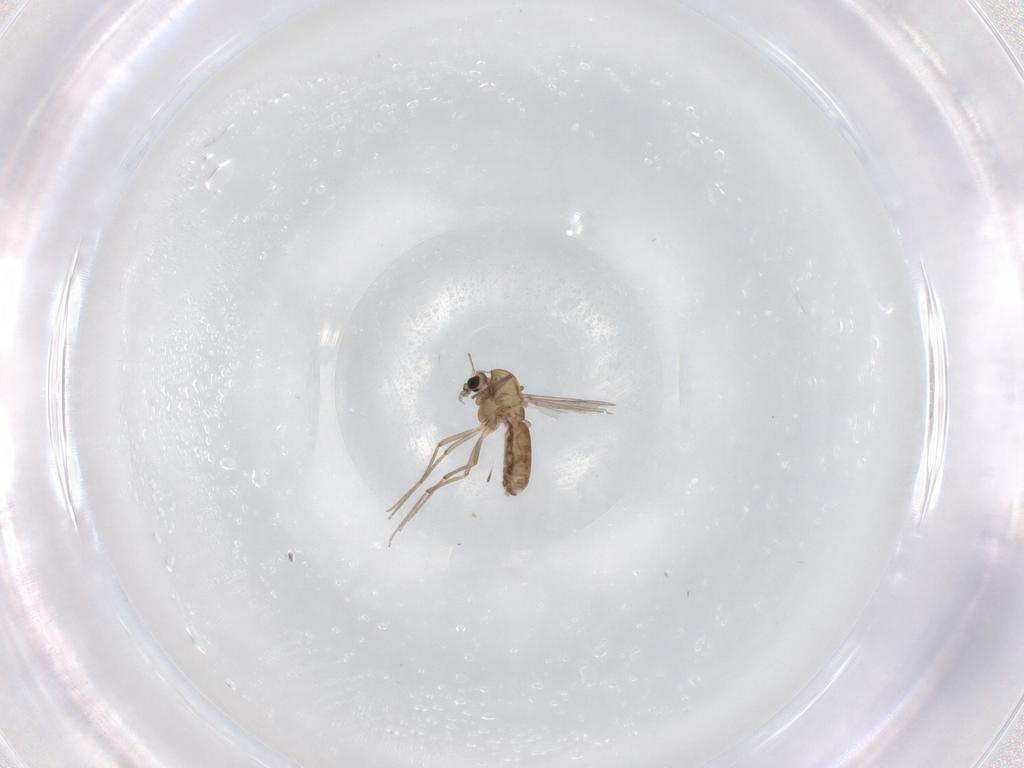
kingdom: Animalia
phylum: Arthropoda
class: Insecta
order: Diptera
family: Chironomidae
